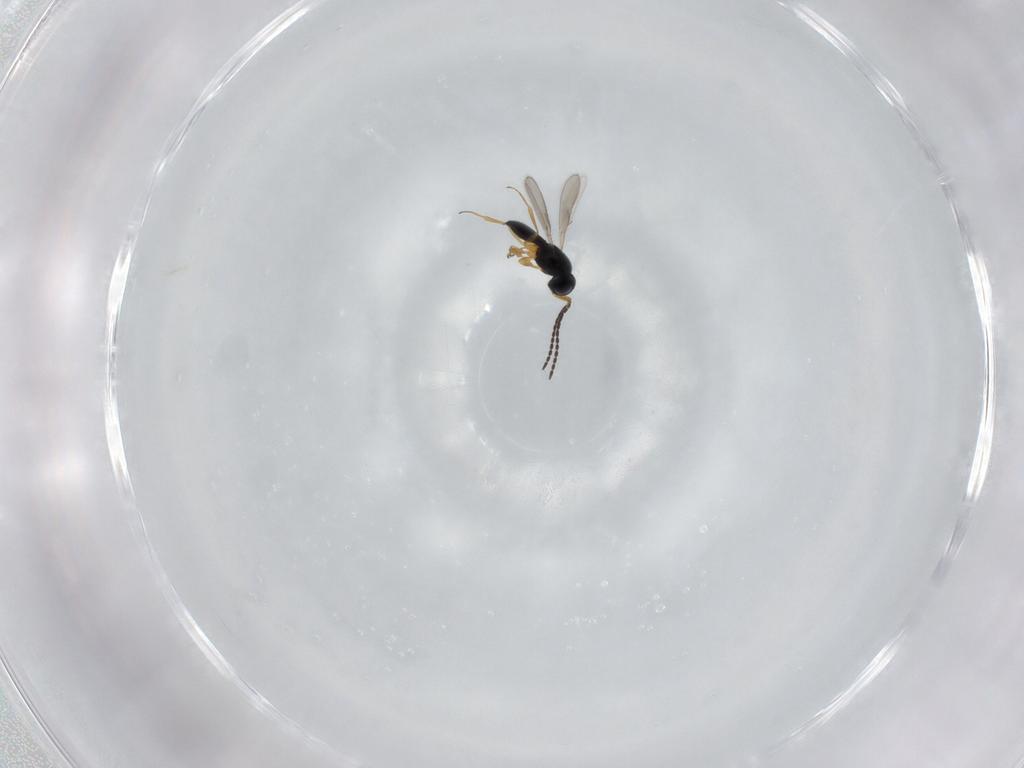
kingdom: Animalia
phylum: Arthropoda
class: Insecta
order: Hymenoptera
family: Scelionidae
